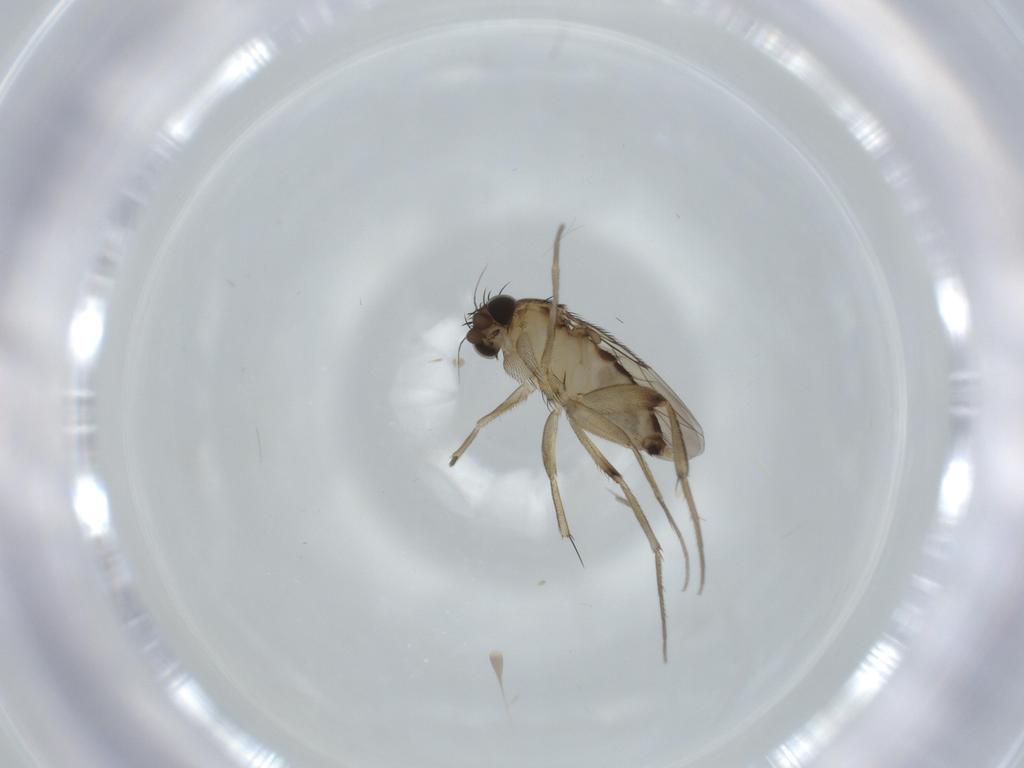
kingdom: Animalia
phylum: Arthropoda
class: Insecta
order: Diptera
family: Phoridae
